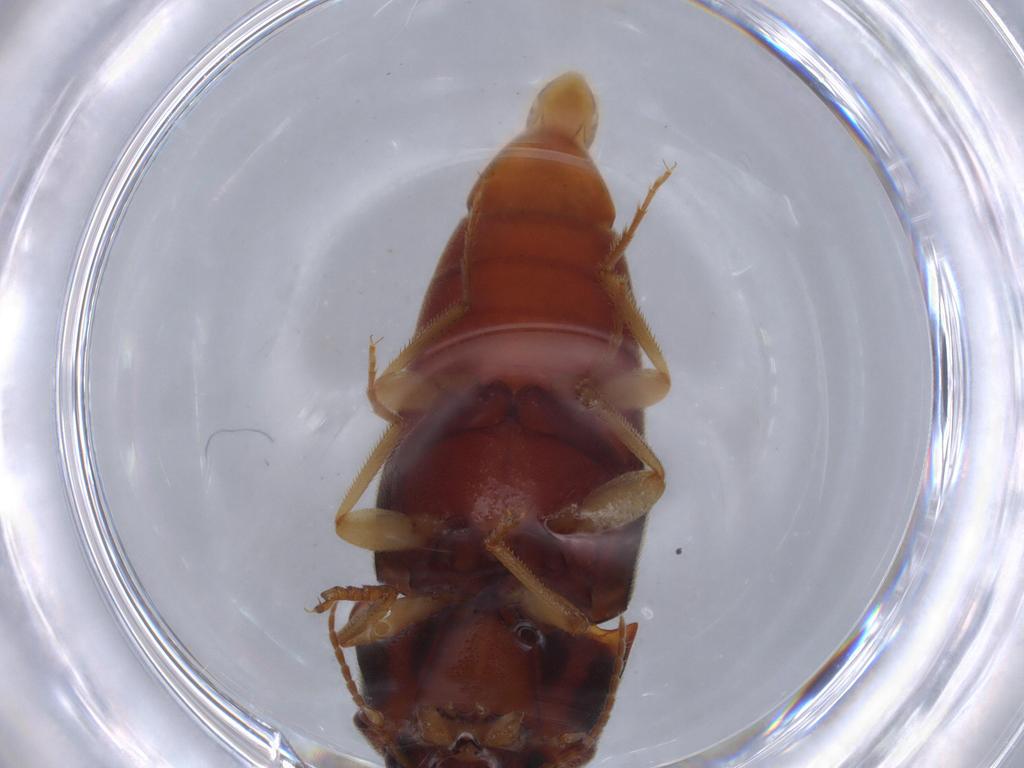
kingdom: Animalia
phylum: Arthropoda
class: Insecta
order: Coleoptera
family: Elateridae
